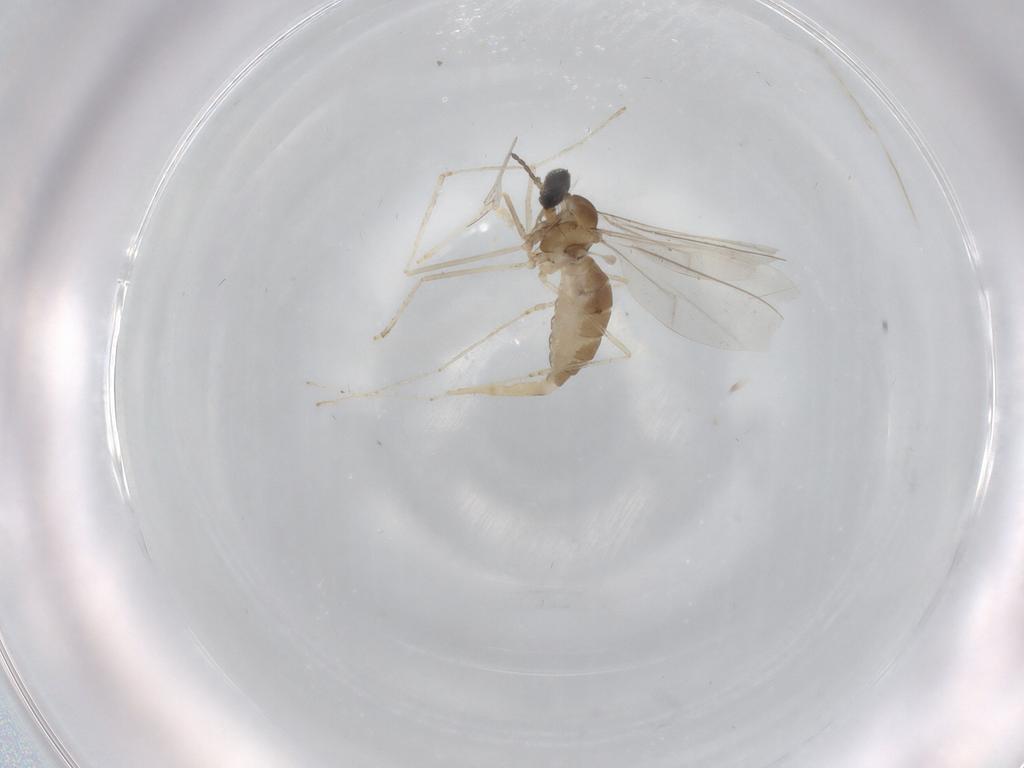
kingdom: Animalia
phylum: Arthropoda
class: Insecta
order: Diptera
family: Cecidomyiidae
